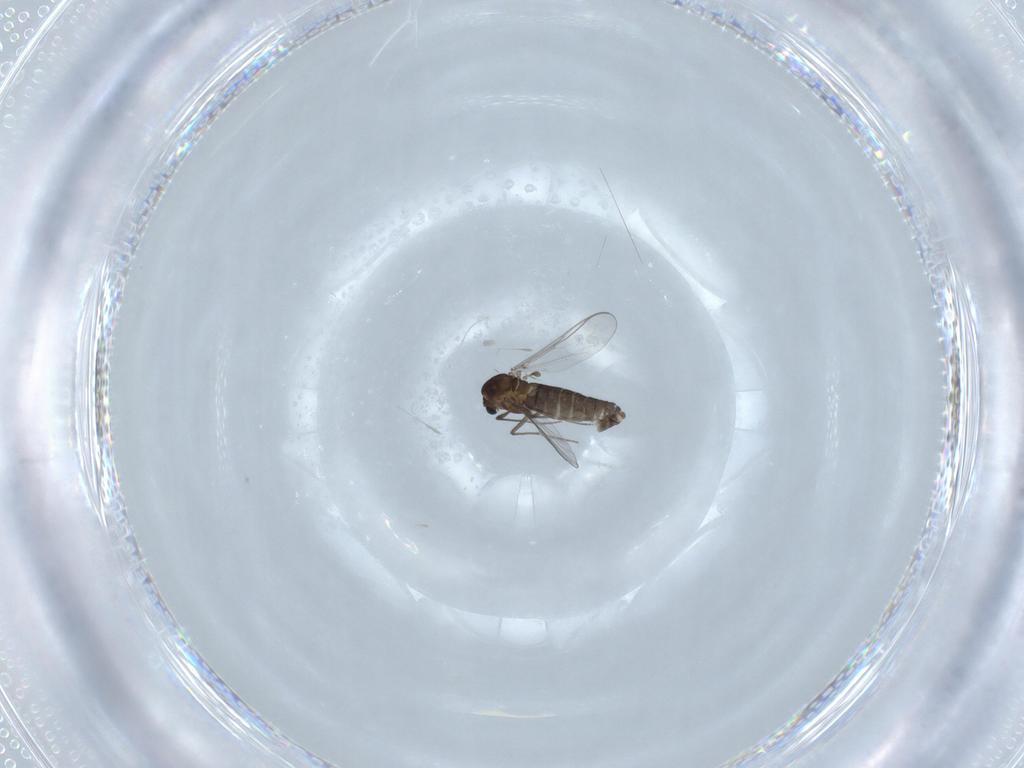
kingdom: Animalia
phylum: Arthropoda
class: Insecta
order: Diptera
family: Chironomidae
